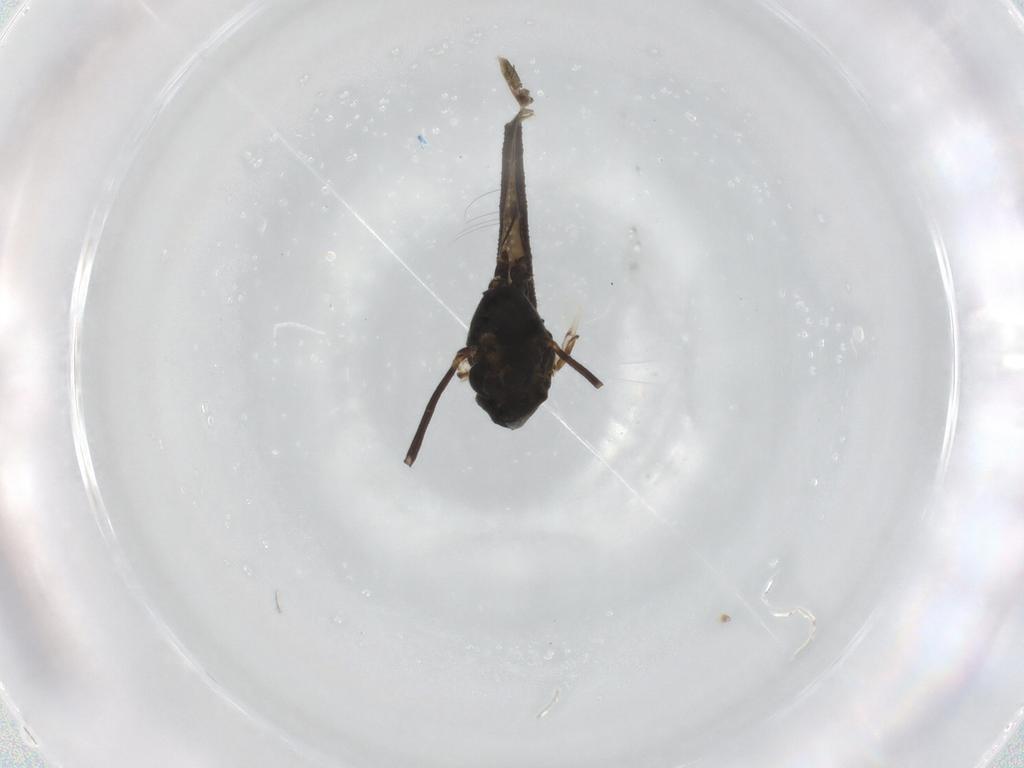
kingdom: Animalia
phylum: Arthropoda
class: Insecta
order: Diptera
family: Chironomidae
